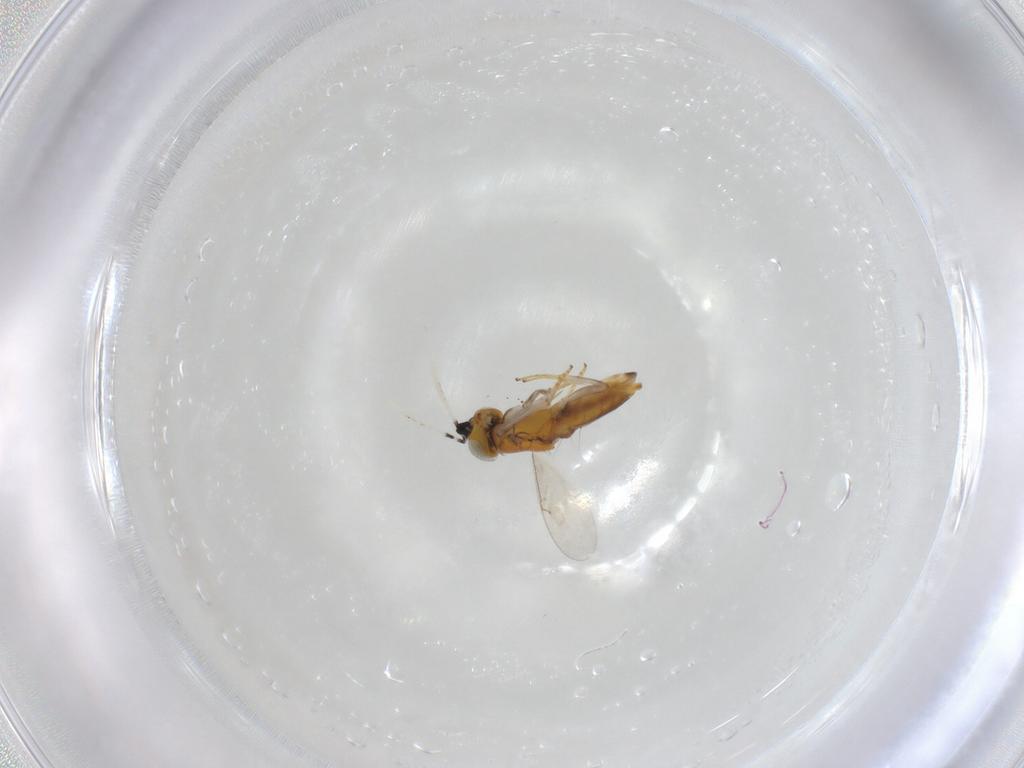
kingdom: Animalia
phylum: Arthropoda
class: Insecta
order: Hymenoptera
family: Encyrtidae
